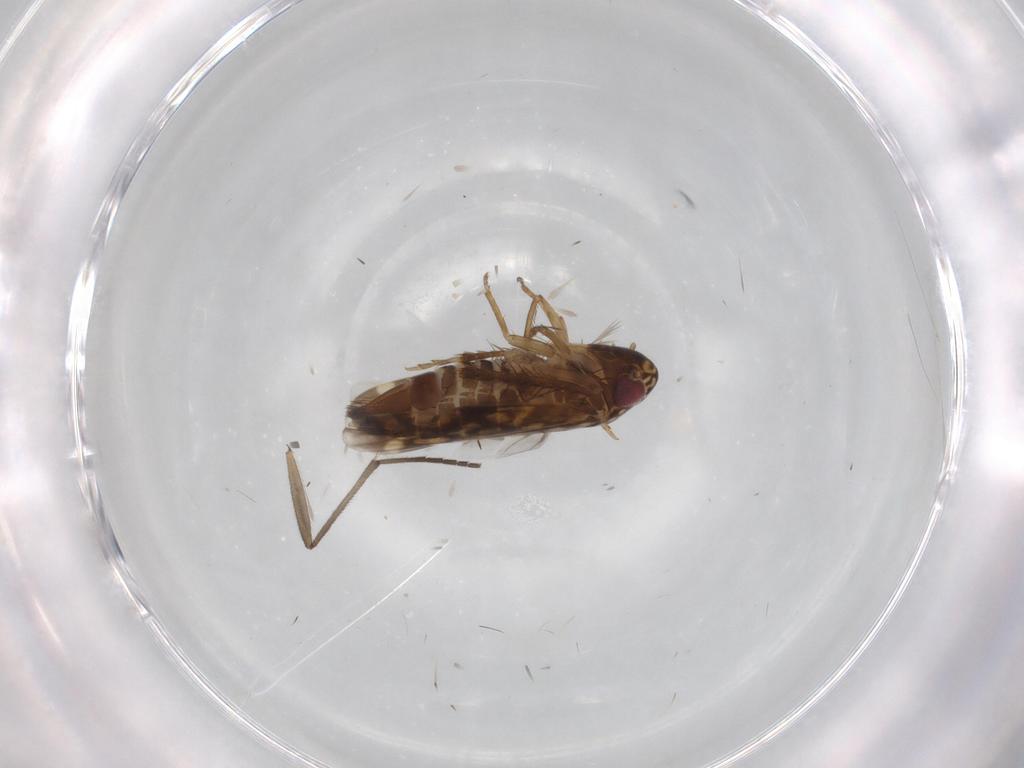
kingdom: Animalia
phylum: Arthropoda
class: Insecta
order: Hemiptera
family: Cicadellidae
